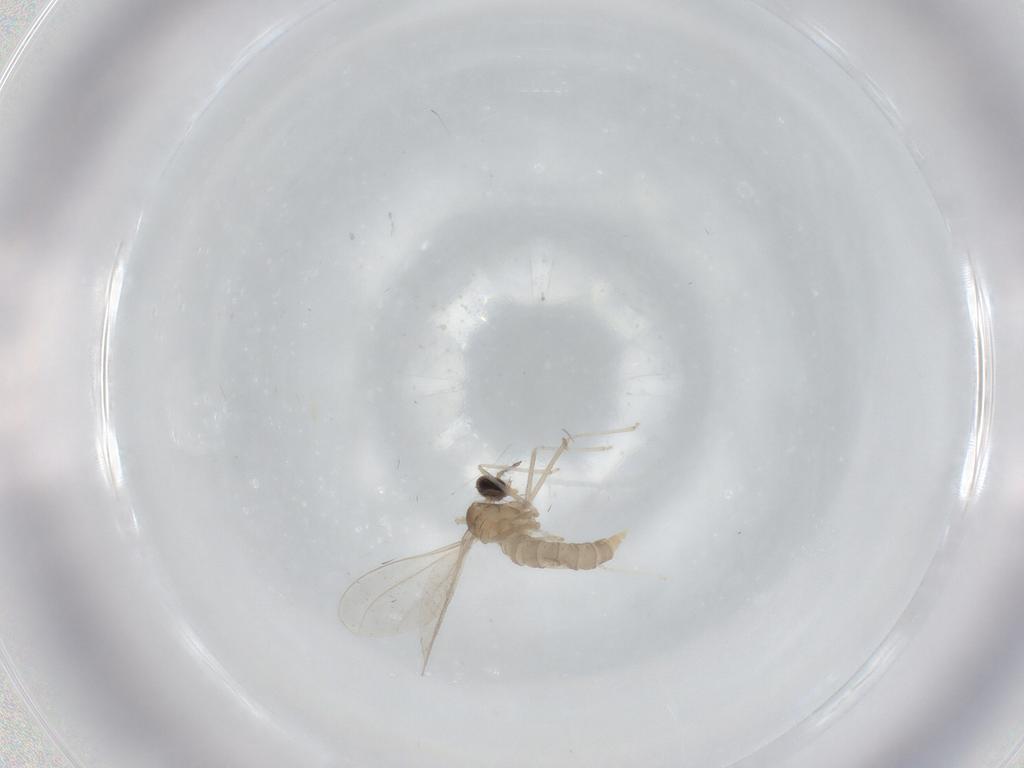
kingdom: Animalia
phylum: Arthropoda
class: Insecta
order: Diptera
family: Cecidomyiidae
